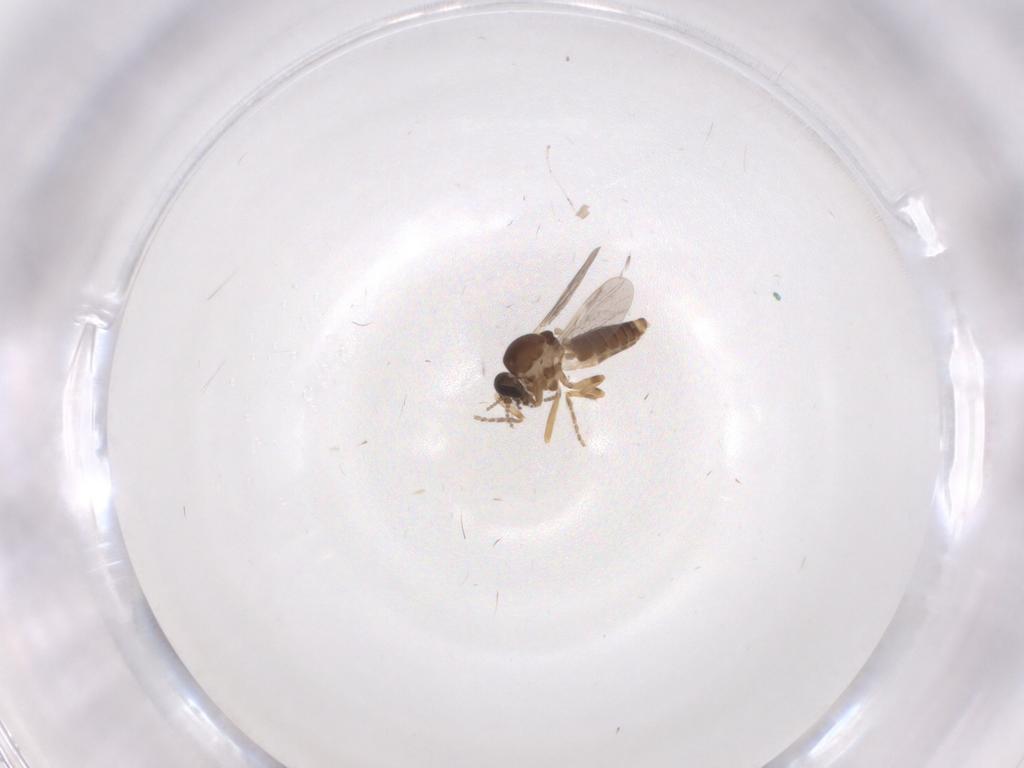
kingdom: Animalia
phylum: Arthropoda
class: Insecta
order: Diptera
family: Ceratopogonidae
